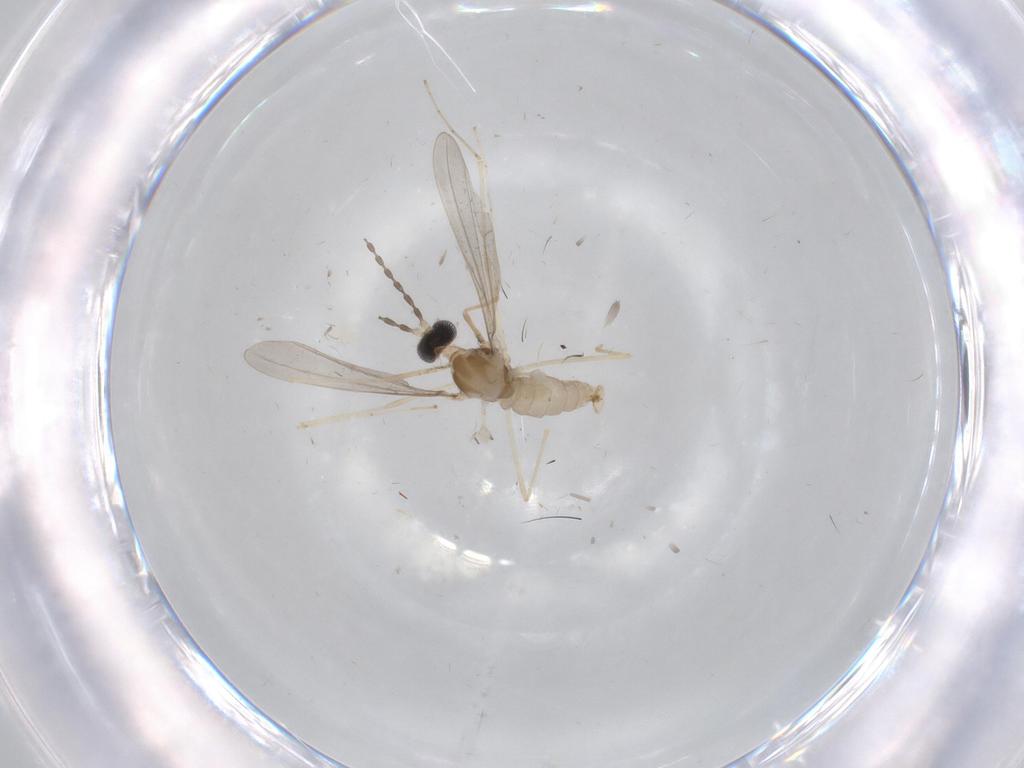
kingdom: Animalia
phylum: Arthropoda
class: Insecta
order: Diptera
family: Cecidomyiidae
